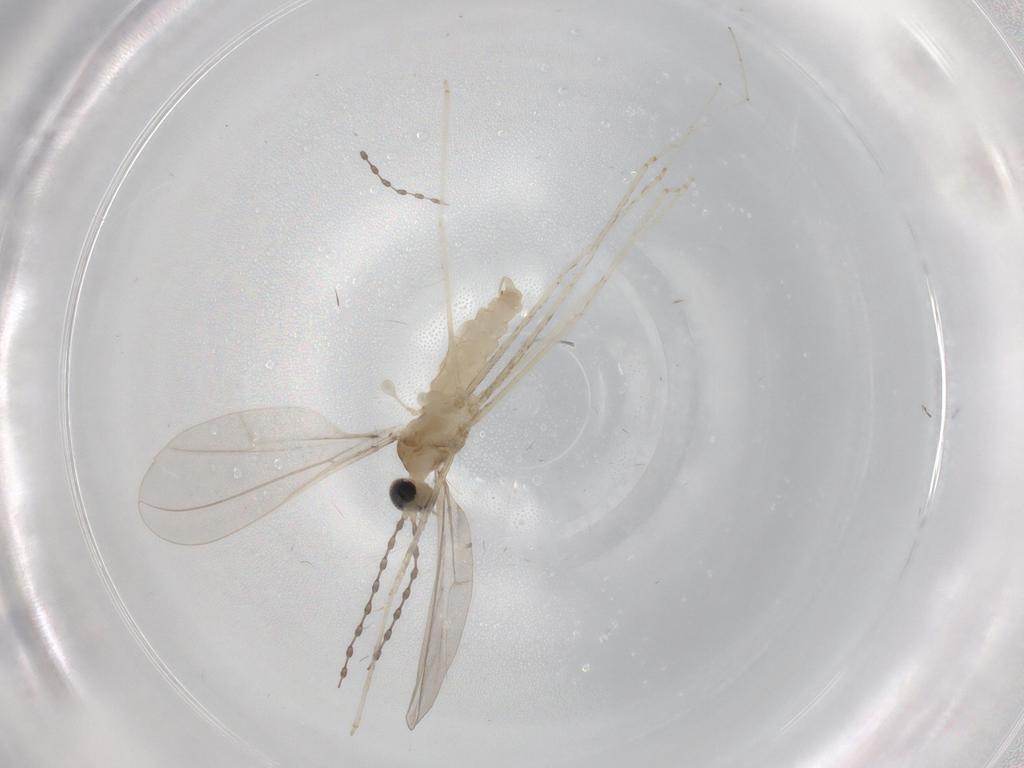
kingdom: Animalia
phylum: Arthropoda
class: Insecta
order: Diptera
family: Cecidomyiidae
